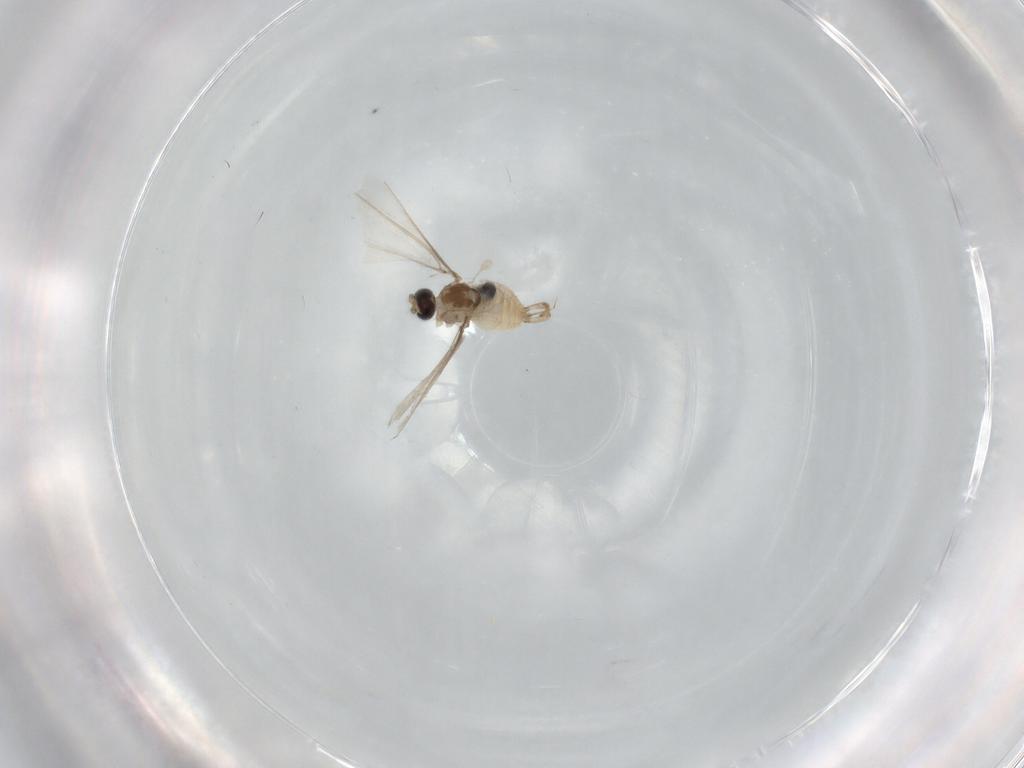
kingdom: Animalia
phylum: Arthropoda
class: Insecta
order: Diptera
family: Cecidomyiidae
